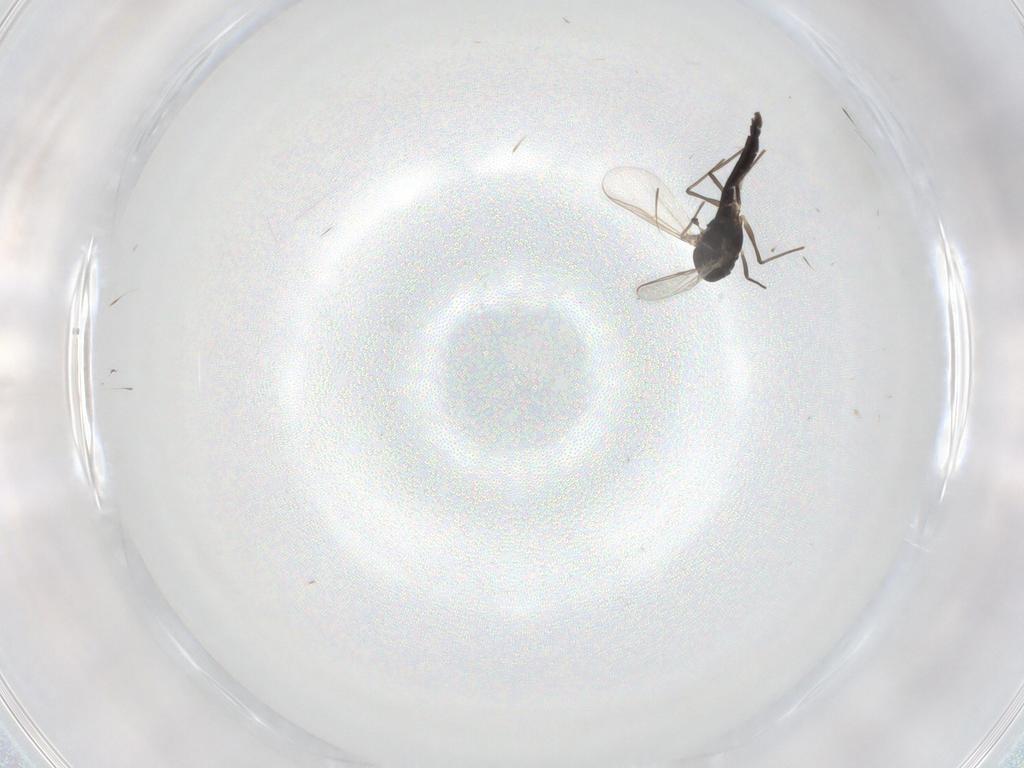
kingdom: Animalia
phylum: Arthropoda
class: Insecta
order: Diptera
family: Chironomidae
